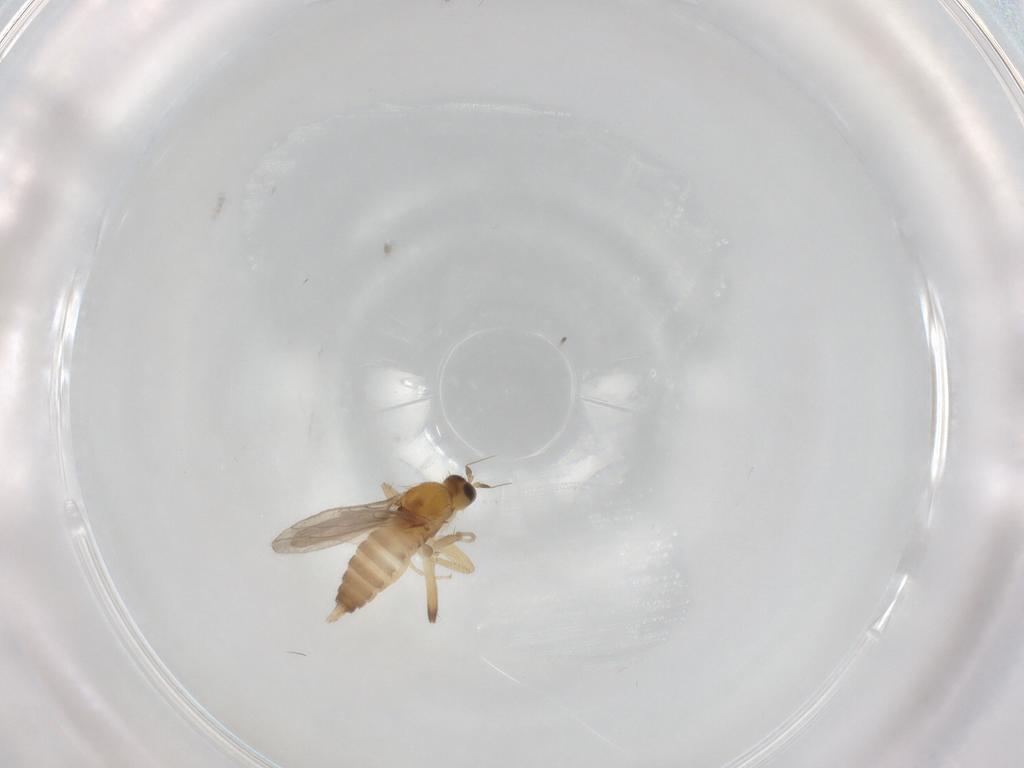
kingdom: Animalia
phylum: Arthropoda
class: Insecta
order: Diptera
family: Hybotidae
